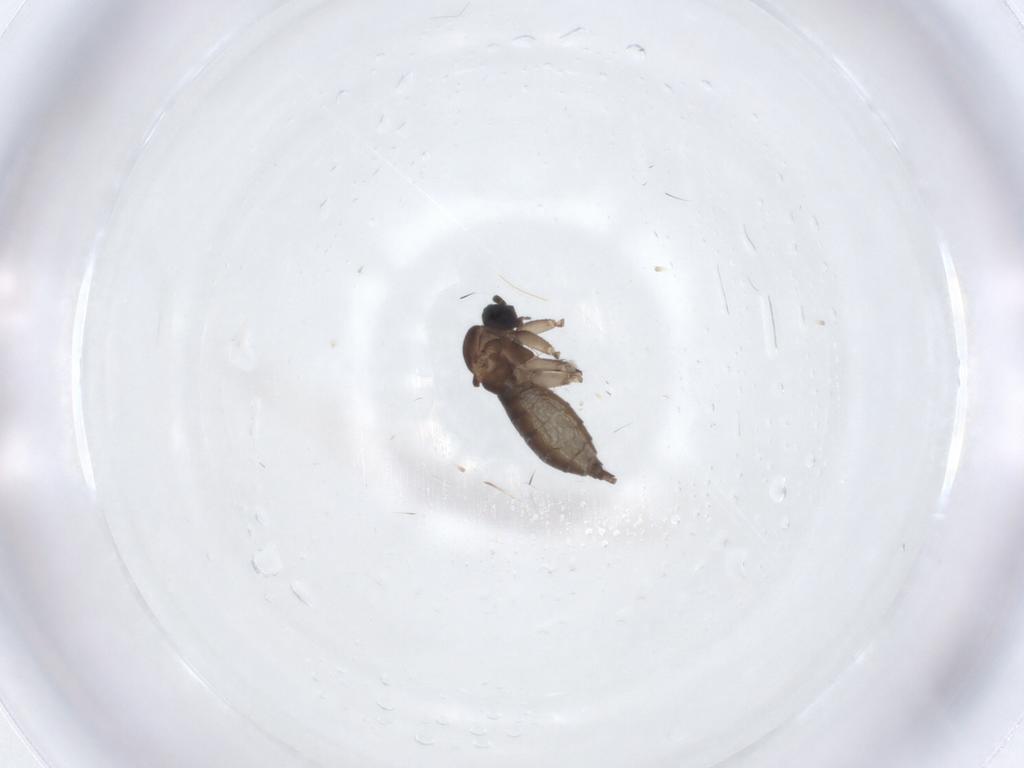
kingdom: Animalia
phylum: Arthropoda
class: Insecta
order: Diptera
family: Sciaridae
